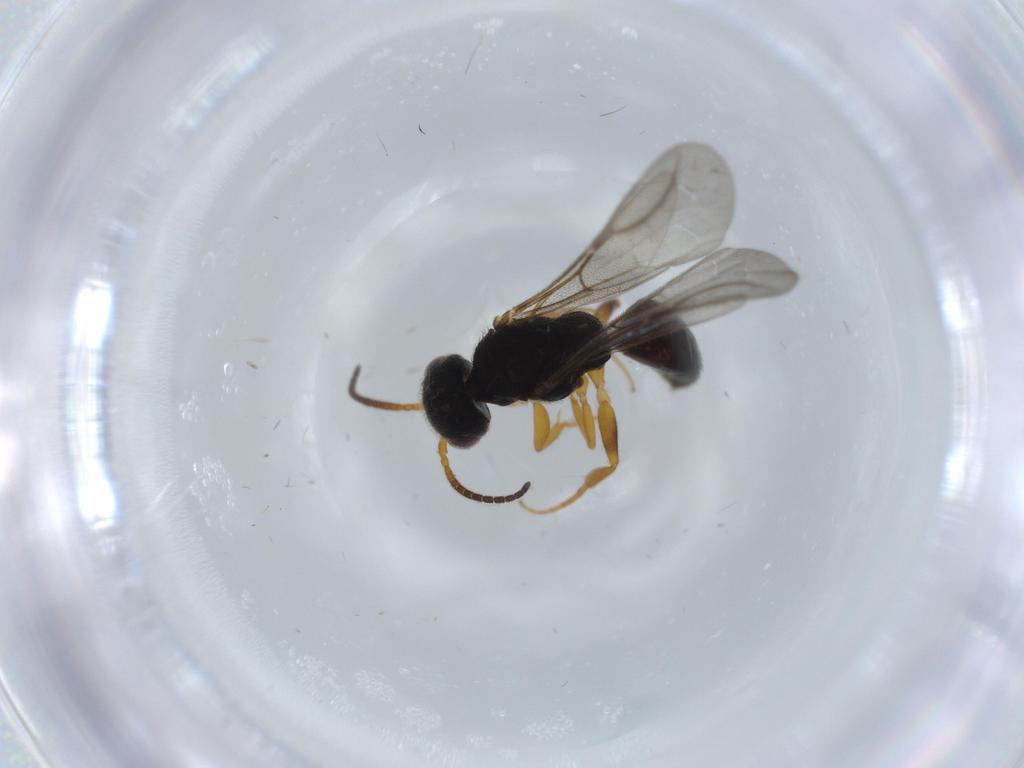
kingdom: Animalia
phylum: Arthropoda
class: Insecta
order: Hymenoptera
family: Bethylidae
